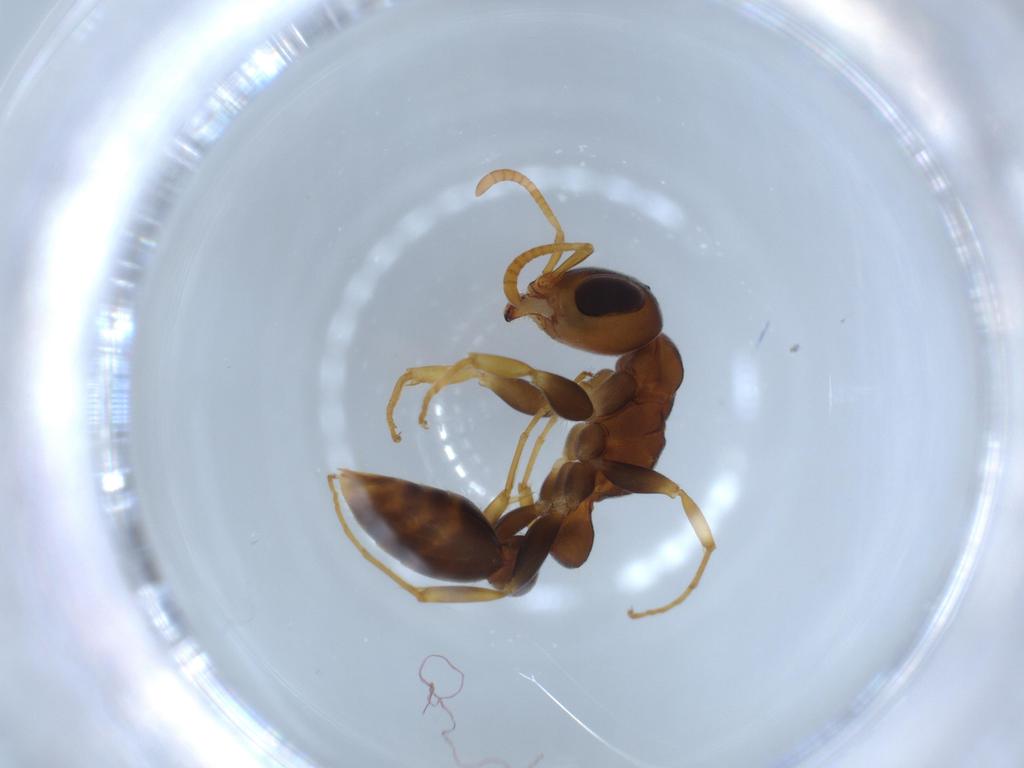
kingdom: Animalia
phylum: Arthropoda
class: Insecta
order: Hymenoptera
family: Formicidae
